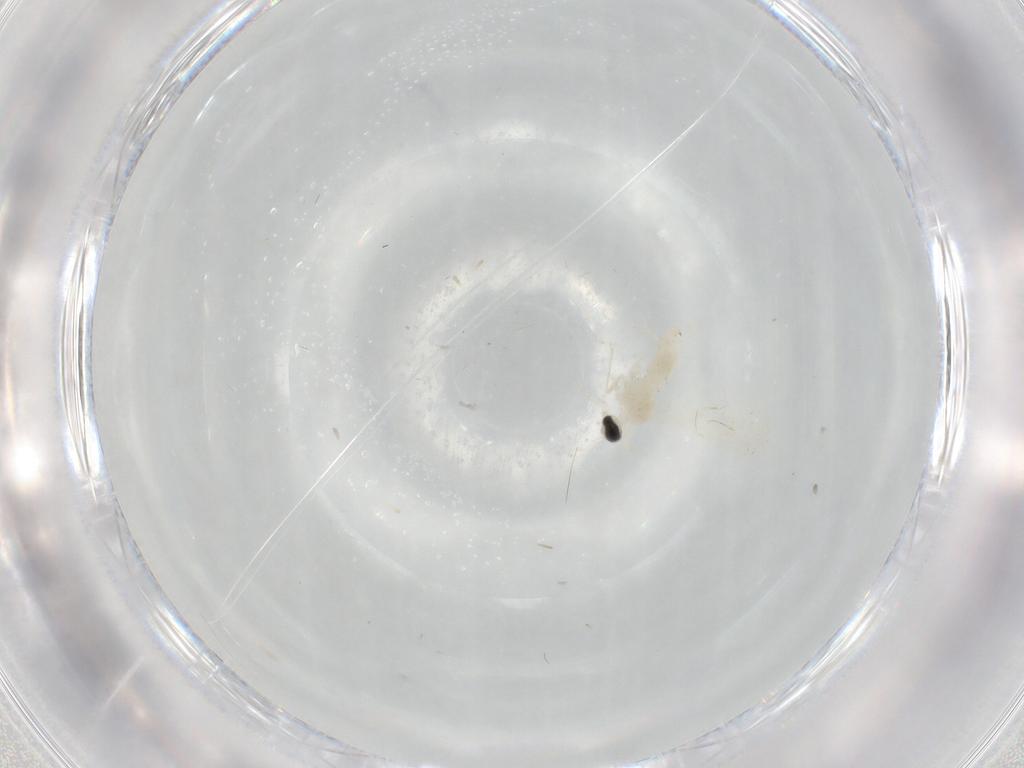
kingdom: Animalia
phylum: Arthropoda
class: Insecta
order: Diptera
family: Cecidomyiidae
